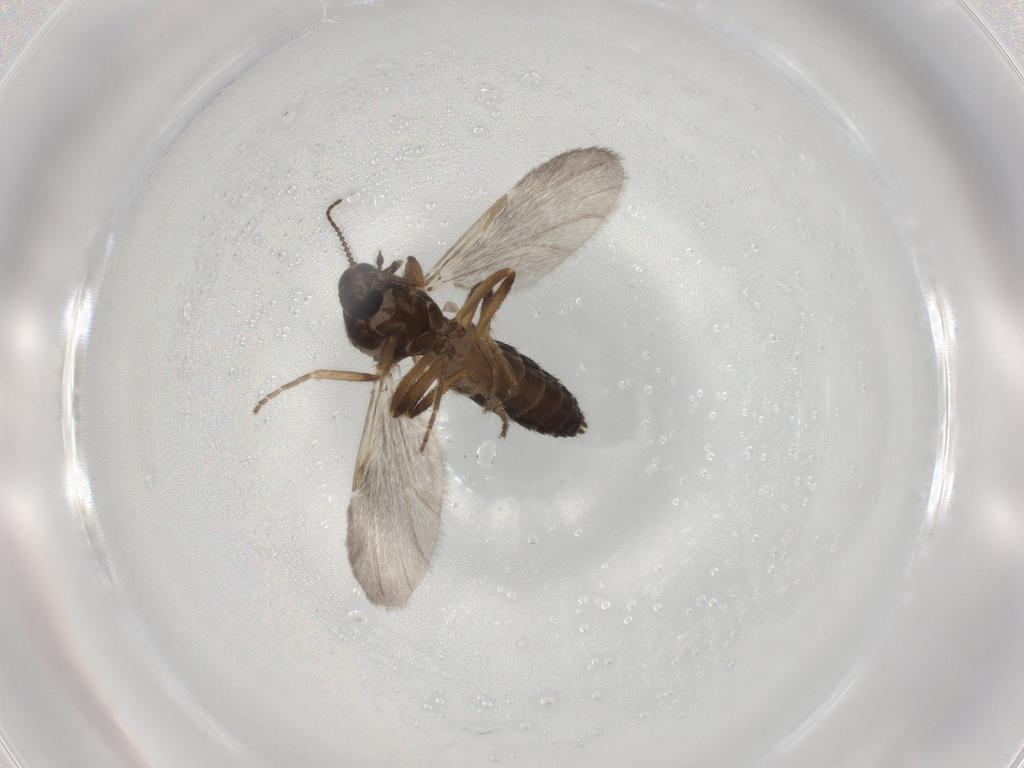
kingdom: Animalia
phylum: Arthropoda
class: Insecta
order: Diptera
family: Ceratopogonidae
